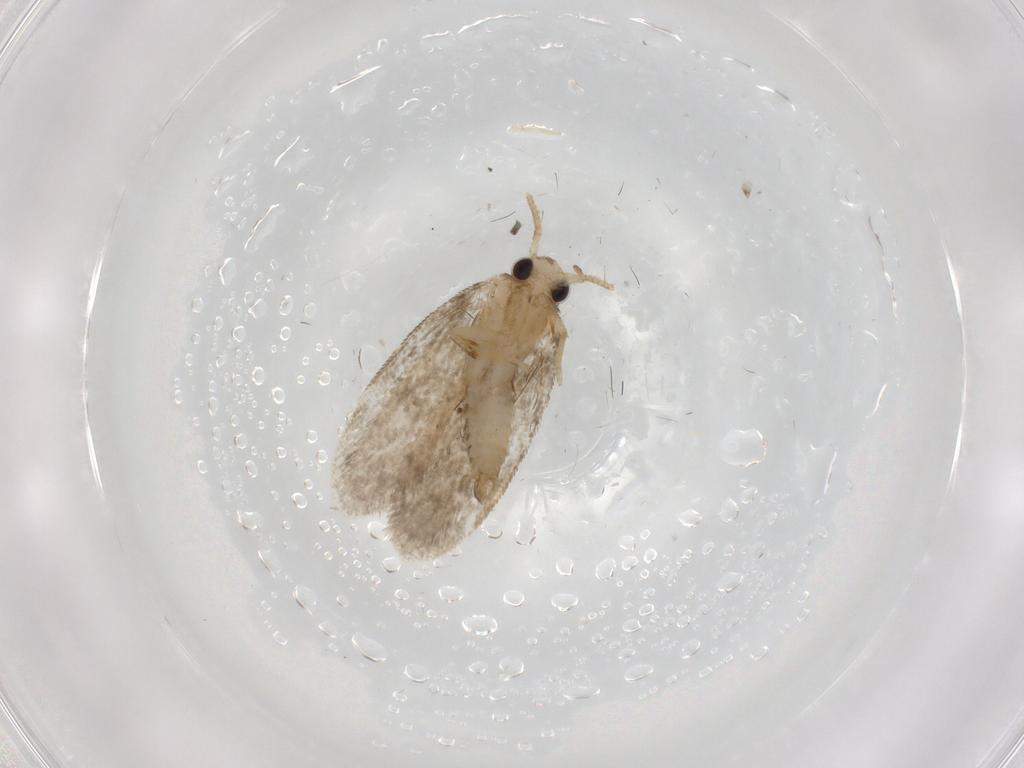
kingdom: Animalia
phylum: Arthropoda
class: Insecta
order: Lepidoptera
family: Psychidae
